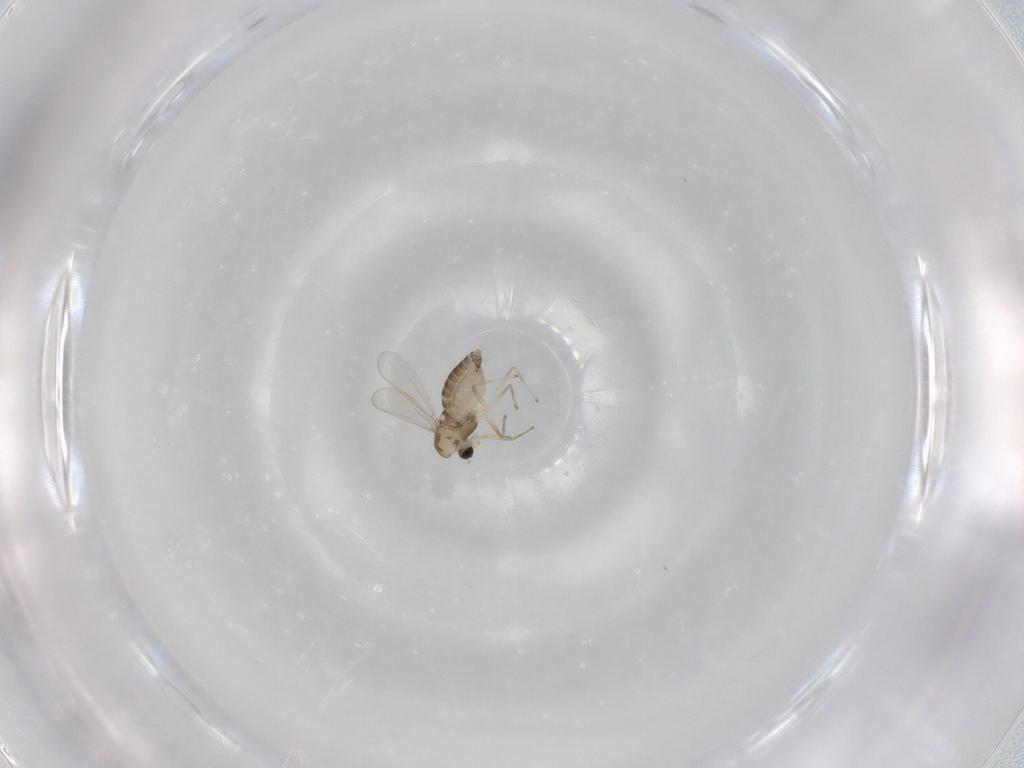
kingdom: Animalia
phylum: Arthropoda
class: Insecta
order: Diptera
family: Chironomidae
